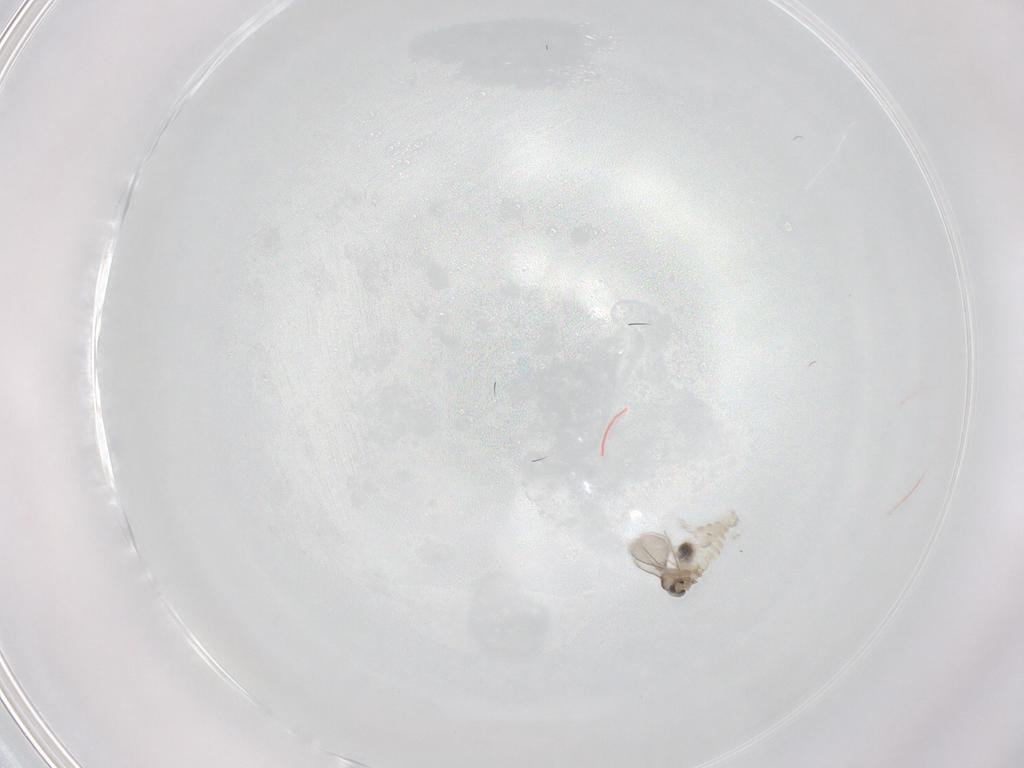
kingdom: Animalia
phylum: Arthropoda
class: Insecta
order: Diptera
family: Cecidomyiidae
